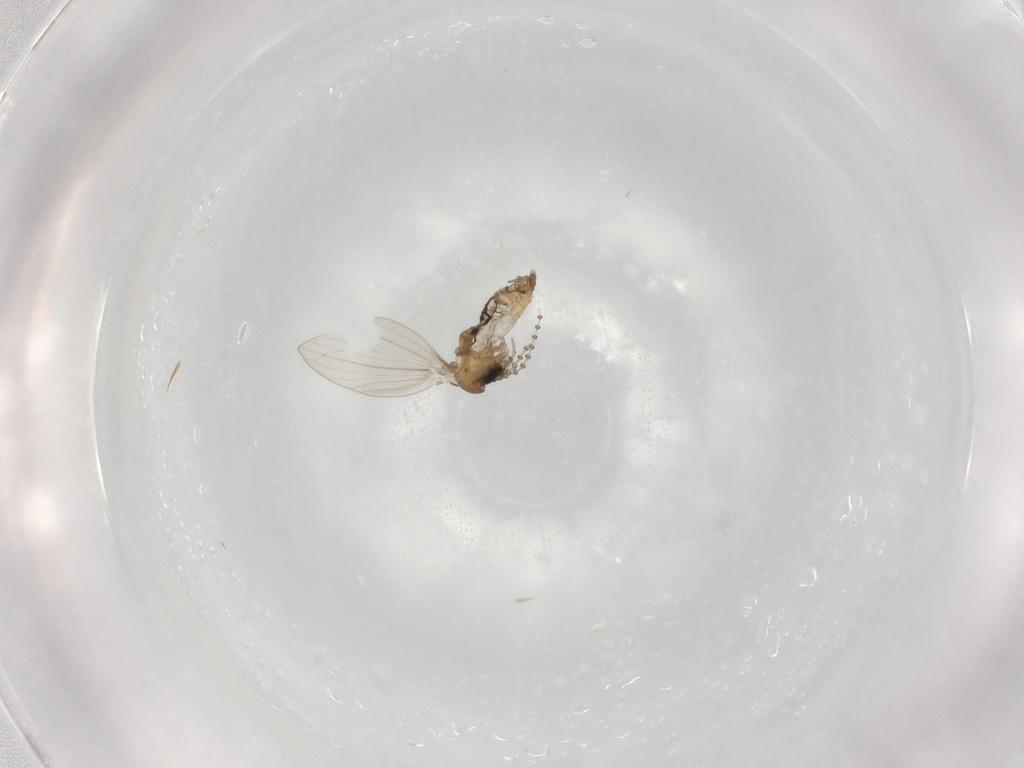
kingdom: Animalia
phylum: Arthropoda
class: Insecta
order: Diptera
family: Psychodidae
